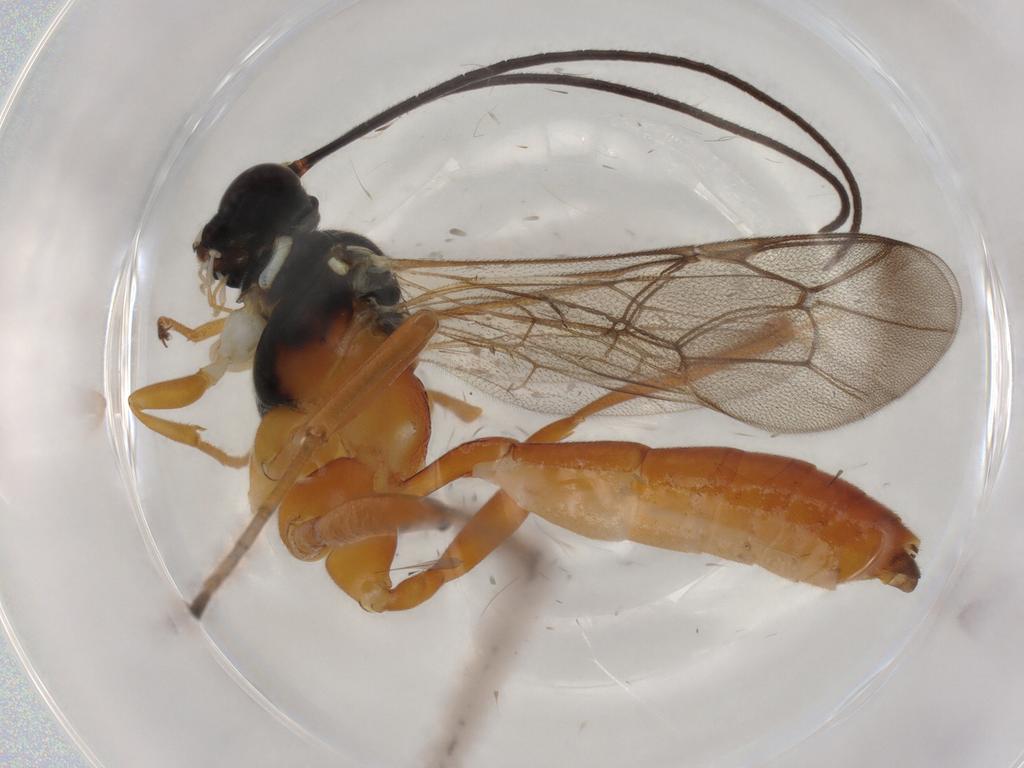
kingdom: Animalia
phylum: Arthropoda
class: Insecta
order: Hymenoptera
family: Ichneumonidae
